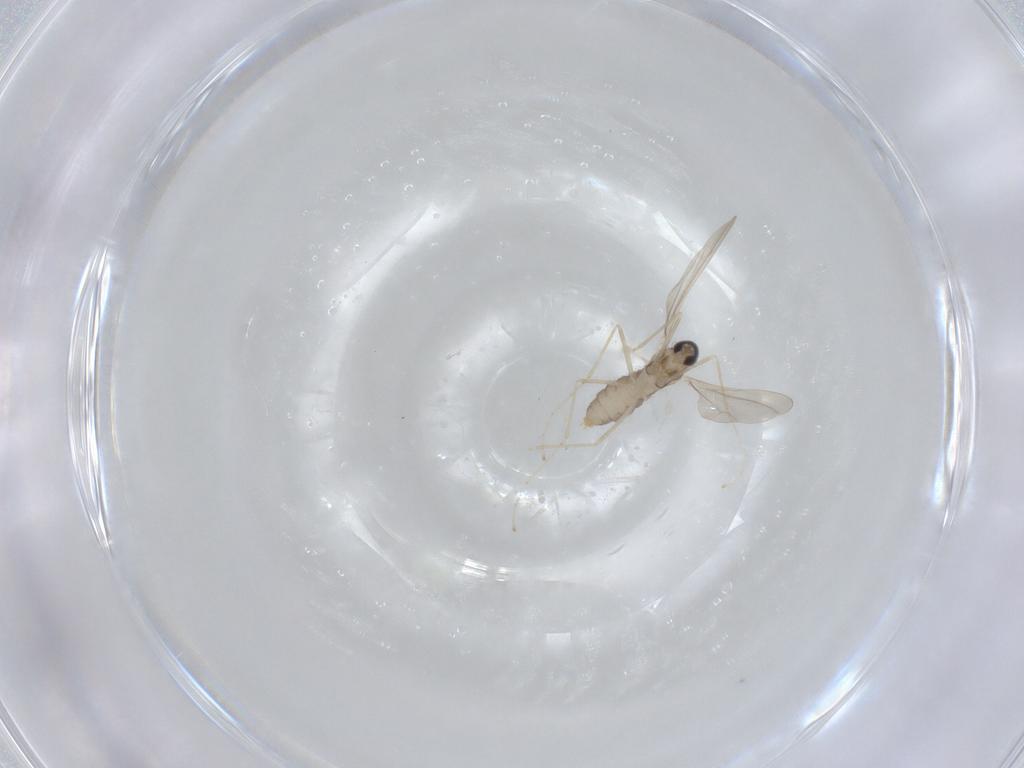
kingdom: Animalia
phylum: Arthropoda
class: Insecta
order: Diptera
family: Cecidomyiidae
